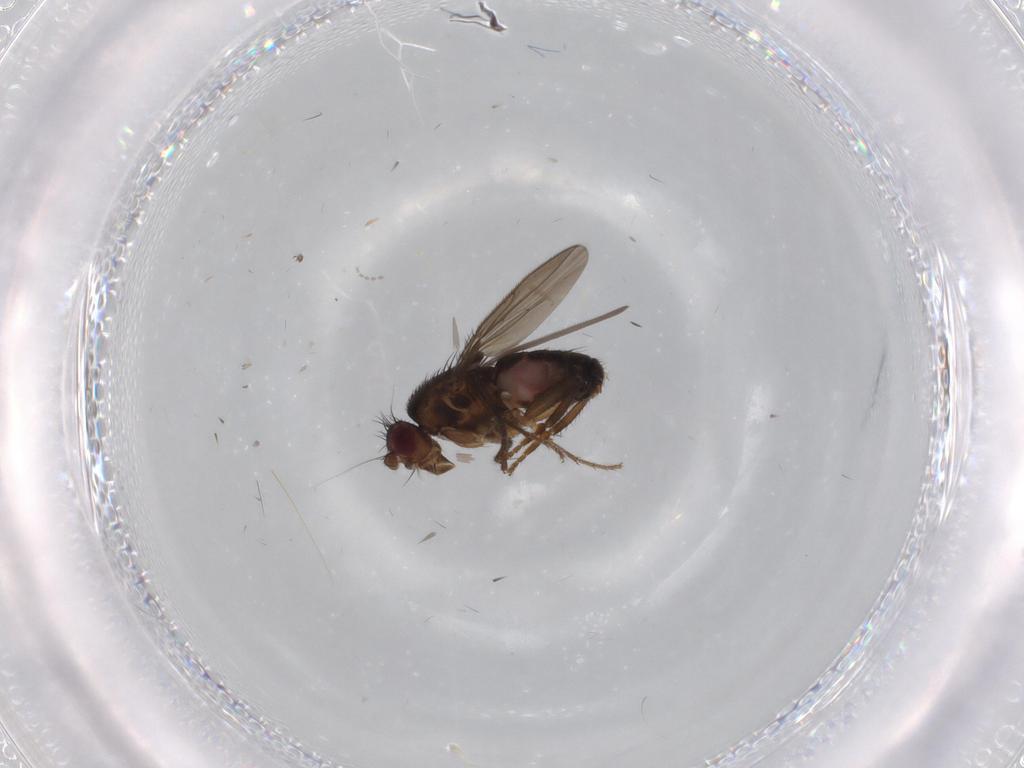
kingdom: Animalia
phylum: Arthropoda
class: Insecta
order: Diptera
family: Cecidomyiidae
